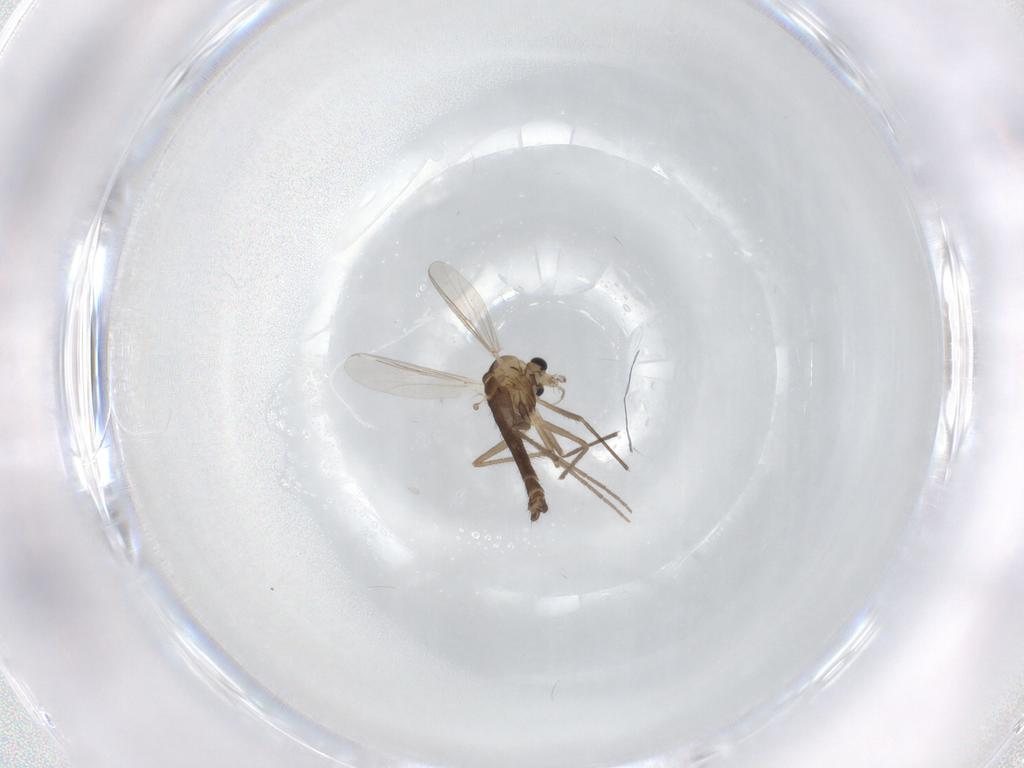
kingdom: Animalia
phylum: Arthropoda
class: Insecta
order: Diptera
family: Chironomidae
